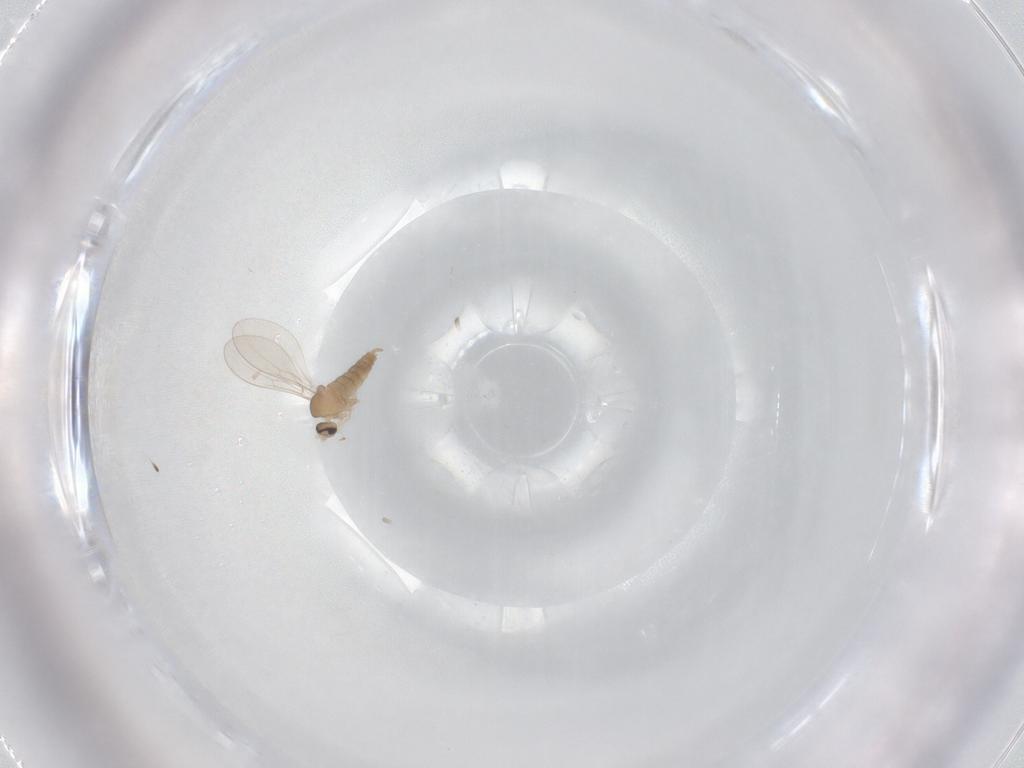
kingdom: Animalia
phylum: Arthropoda
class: Insecta
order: Diptera
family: Cecidomyiidae
